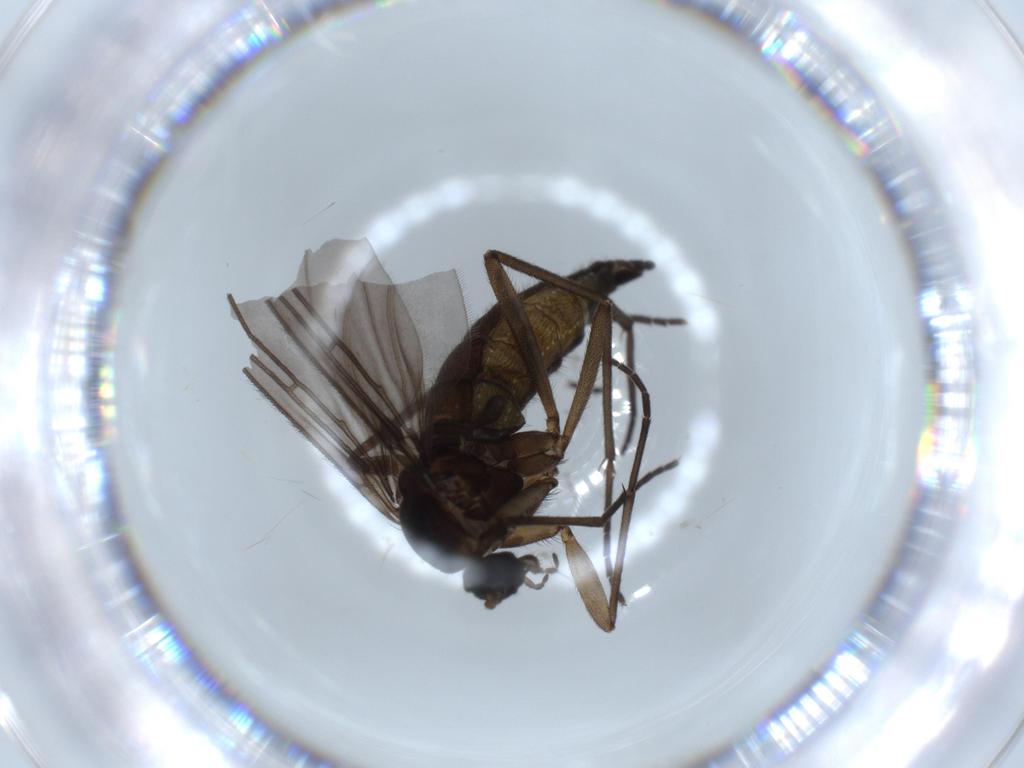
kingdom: Animalia
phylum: Arthropoda
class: Insecta
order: Diptera
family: Sciaridae
